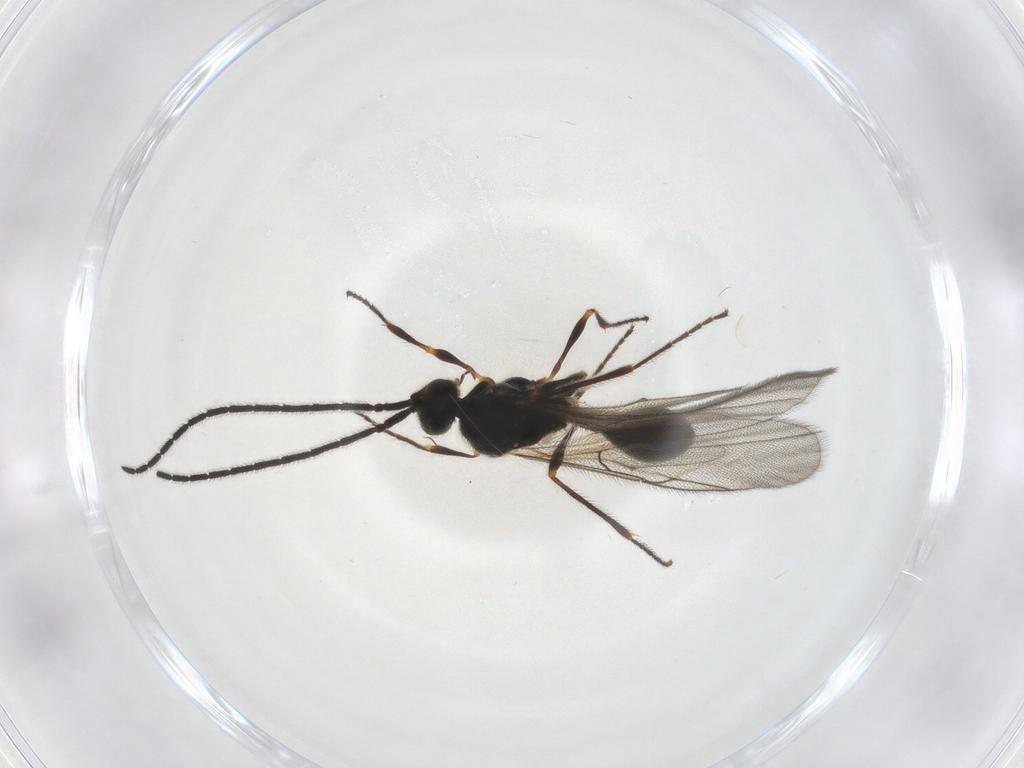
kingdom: Animalia
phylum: Arthropoda
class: Insecta
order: Hymenoptera
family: Diapriidae
